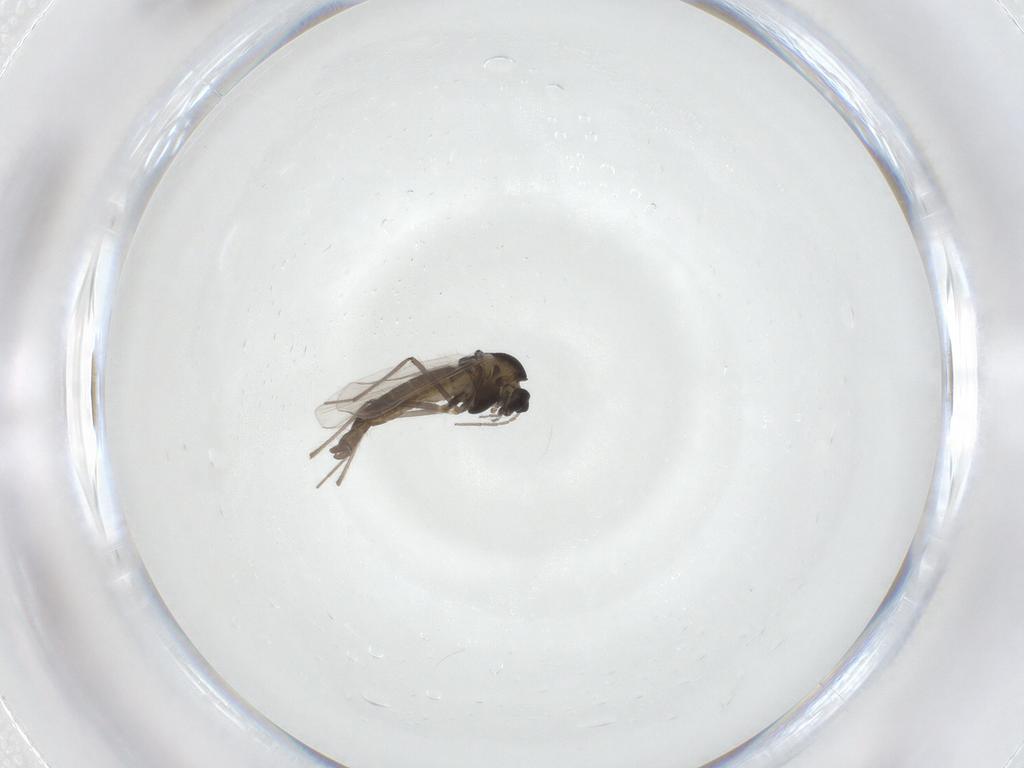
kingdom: Animalia
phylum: Arthropoda
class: Insecta
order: Diptera
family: Chironomidae
